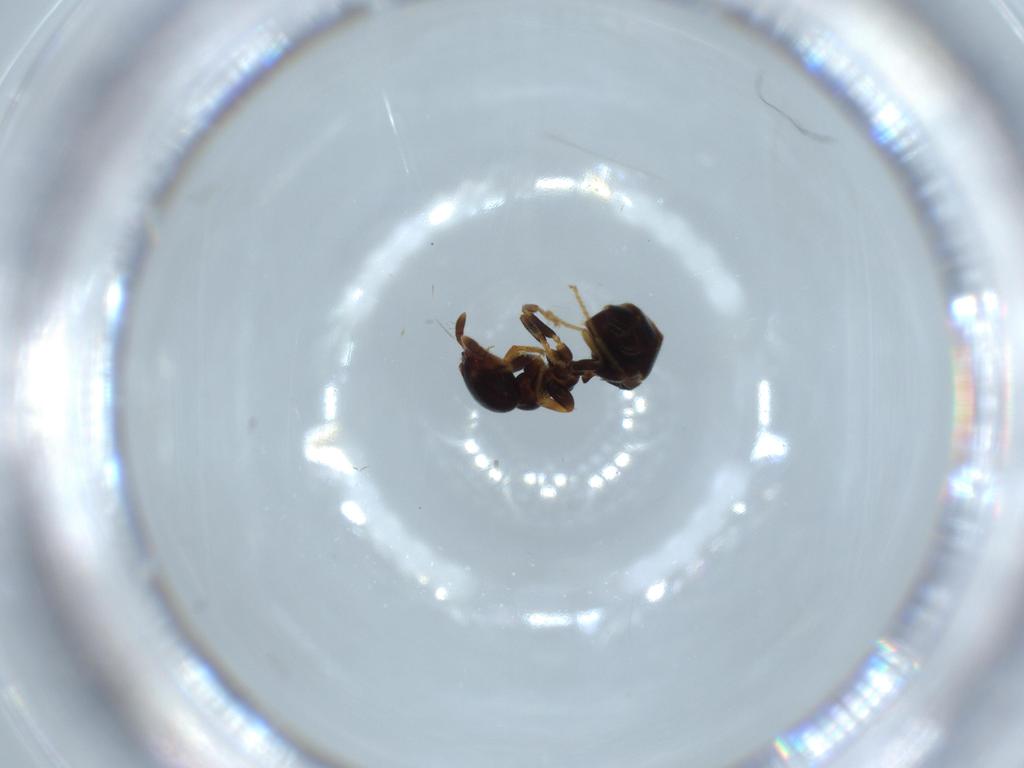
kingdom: Animalia
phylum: Arthropoda
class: Insecta
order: Hymenoptera
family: Formicidae
